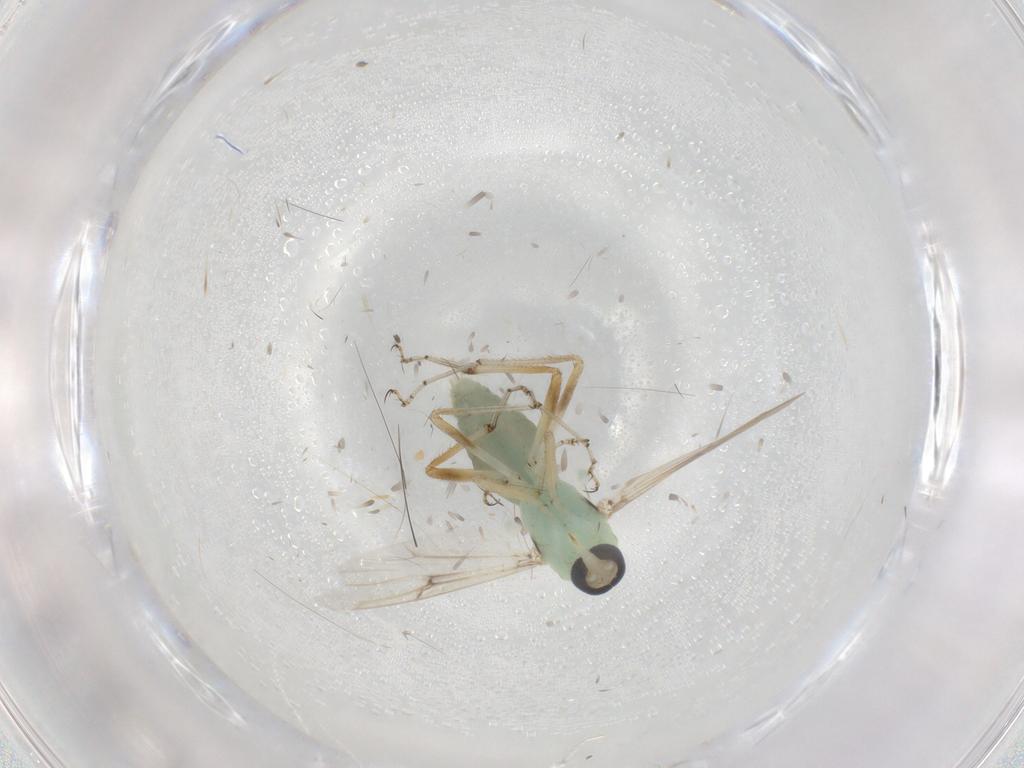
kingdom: Animalia
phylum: Arthropoda
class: Insecta
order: Diptera
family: Ceratopogonidae
